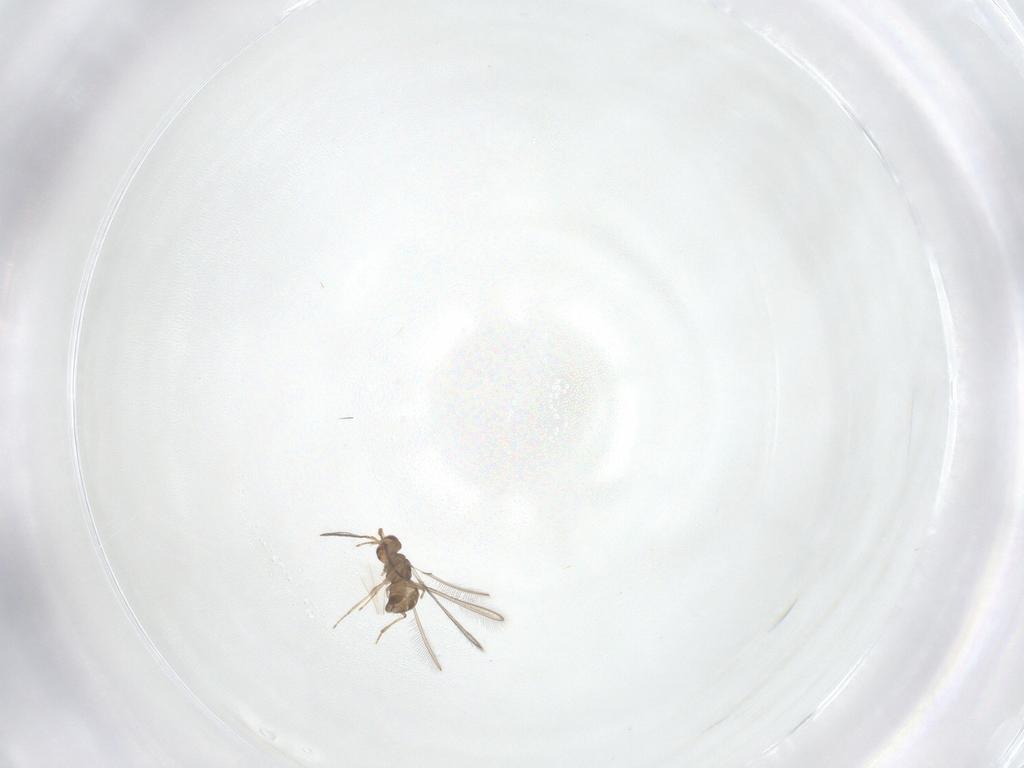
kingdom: Animalia
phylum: Arthropoda
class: Insecta
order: Hymenoptera
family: Mymaridae
